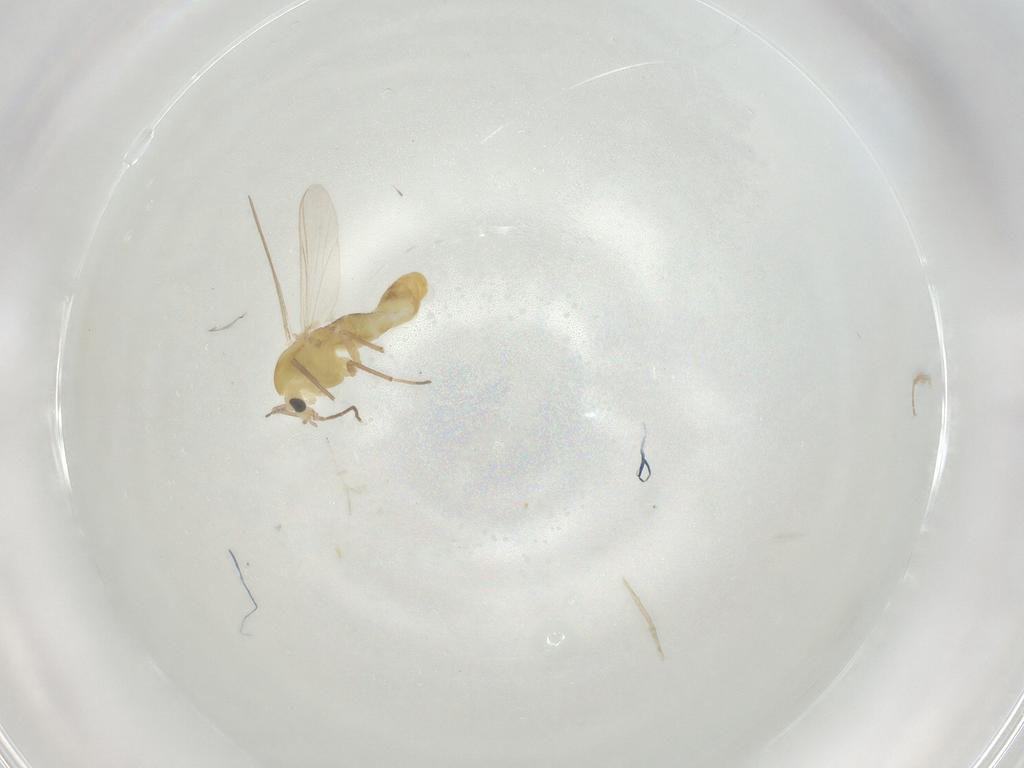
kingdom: Animalia
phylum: Arthropoda
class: Insecta
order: Diptera
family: Chironomidae
